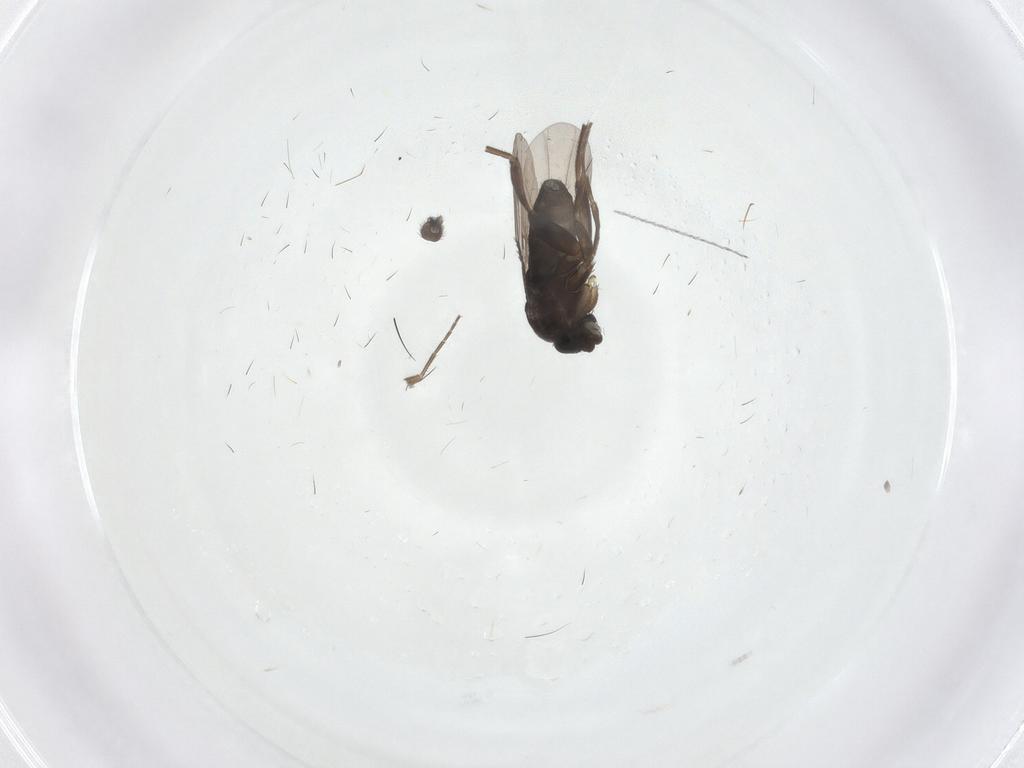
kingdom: Animalia
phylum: Arthropoda
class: Insecta
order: Diptera
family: Phoridae
